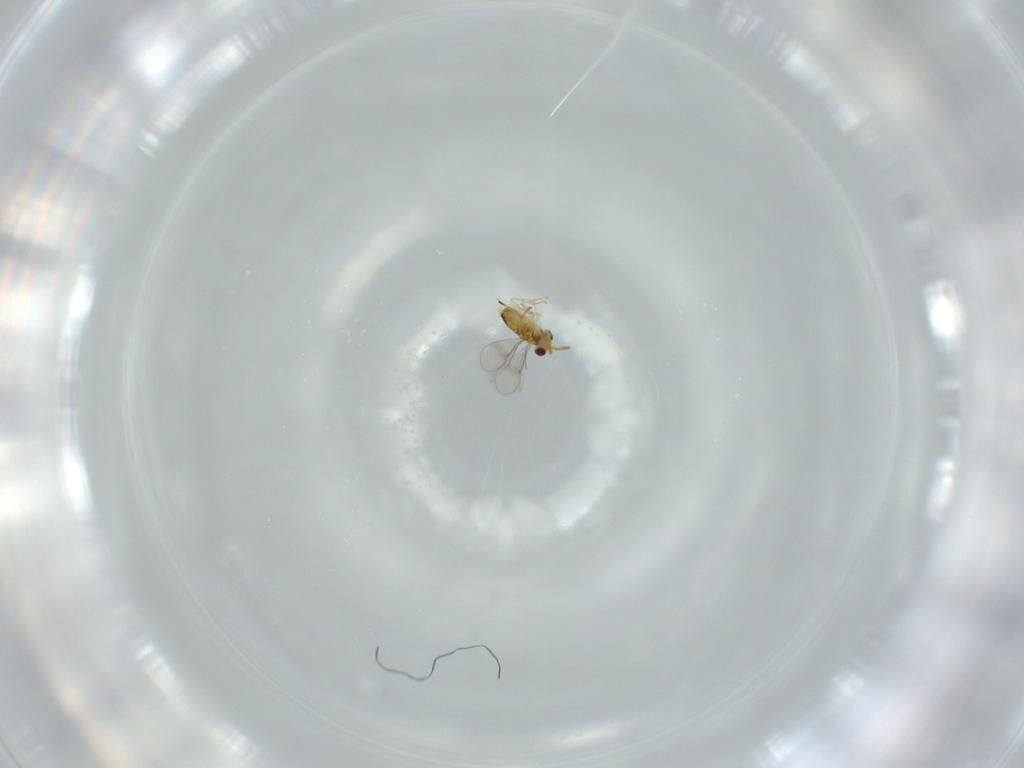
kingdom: Animalia
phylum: Arthropoda
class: Insecta
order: Hymenoptera
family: Aphelinidae
